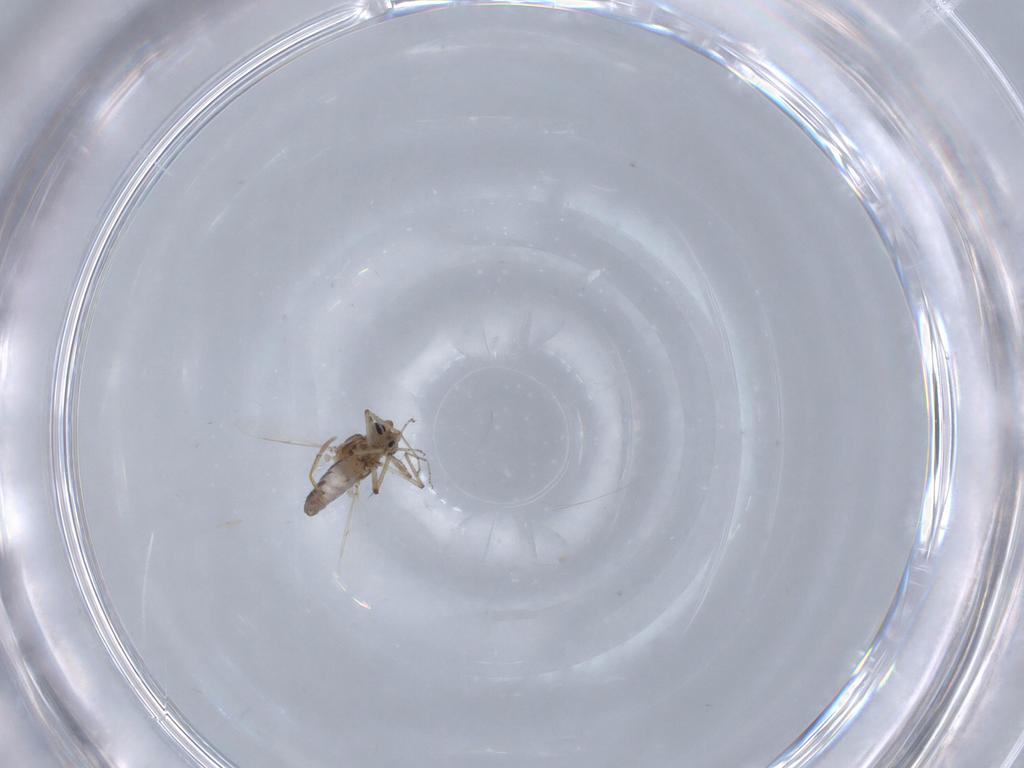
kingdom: Animalia
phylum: Arthropoda
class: Insecta
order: Diptera
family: Ceratopogonidae
